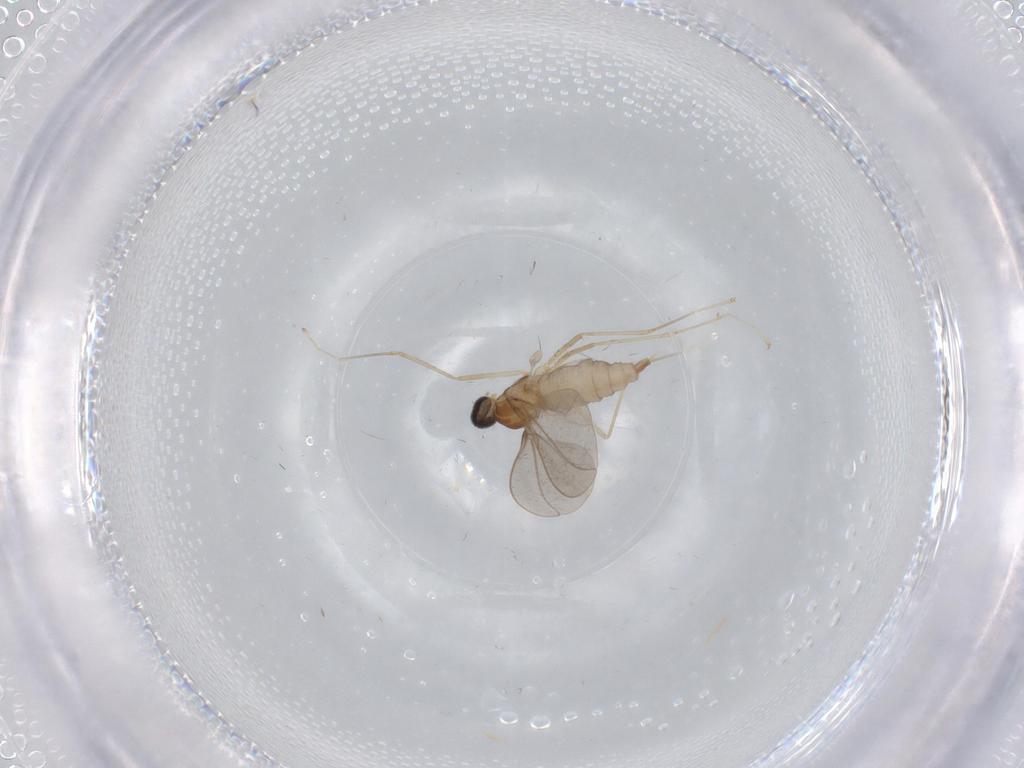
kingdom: Animalia
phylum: Arthropoda
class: Insecta
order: Diptera
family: Cecidomyiidae
